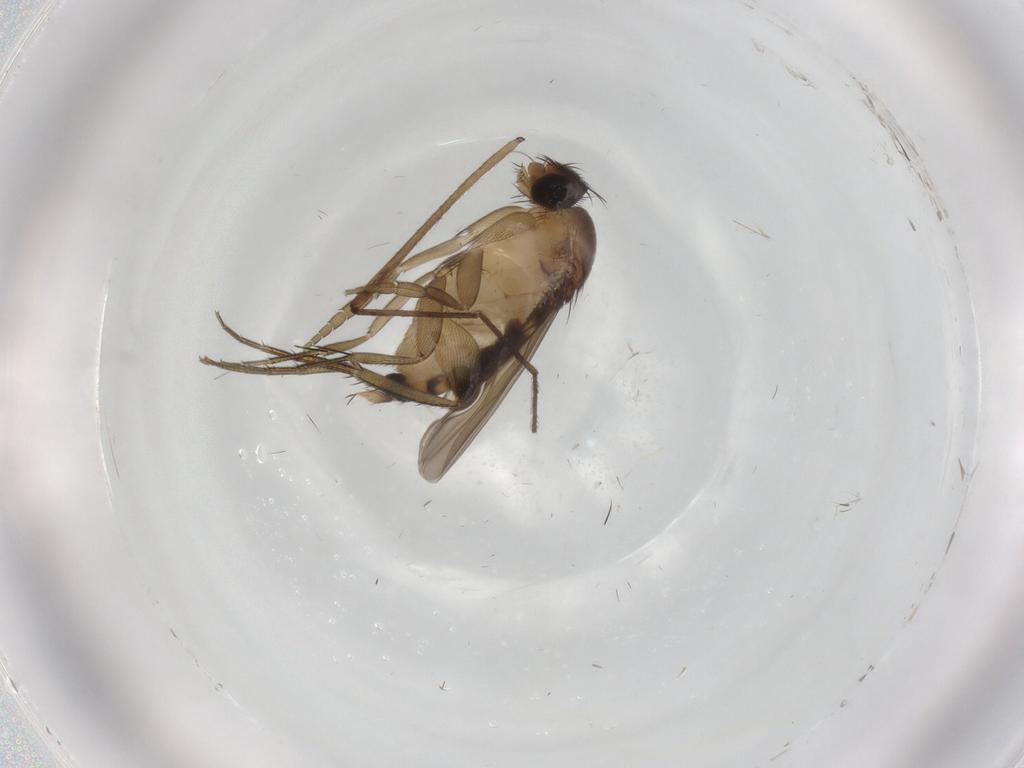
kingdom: Animalia
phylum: Arthropoda
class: Insecta
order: Diptera
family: Phoridae
